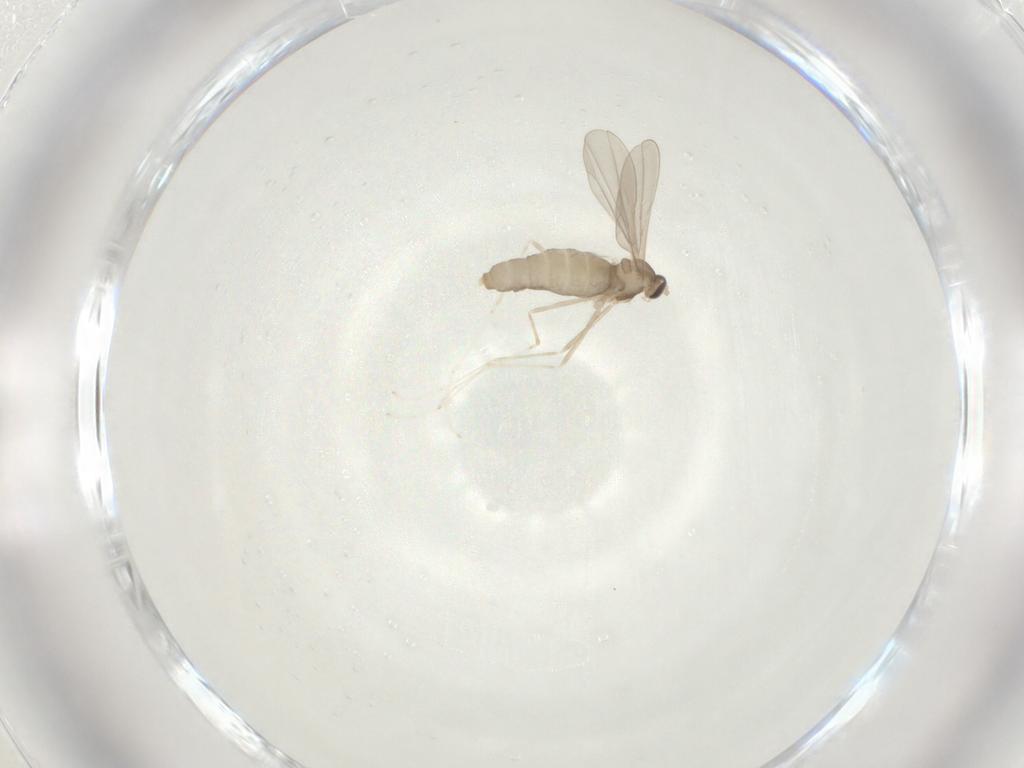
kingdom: Animalia
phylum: Arthropoda
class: Insecta
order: Diptera
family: Cecidomyiidae
